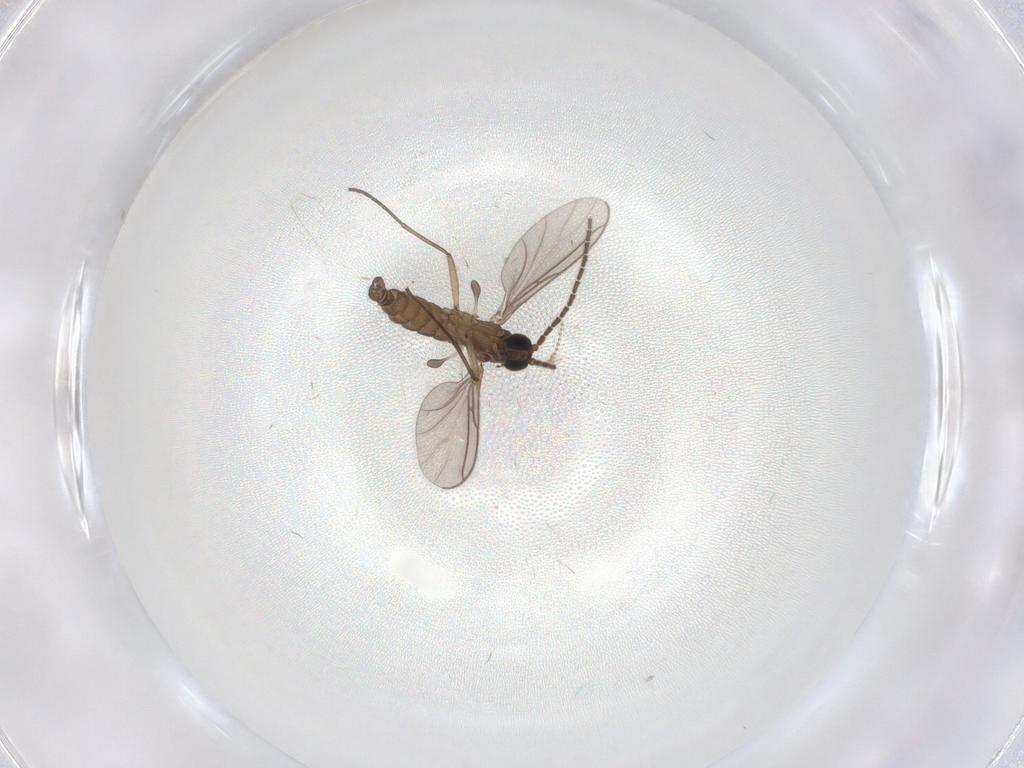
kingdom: Animalia
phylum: Arthropoda
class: Insecta
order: Diptera
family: Sciaridae
